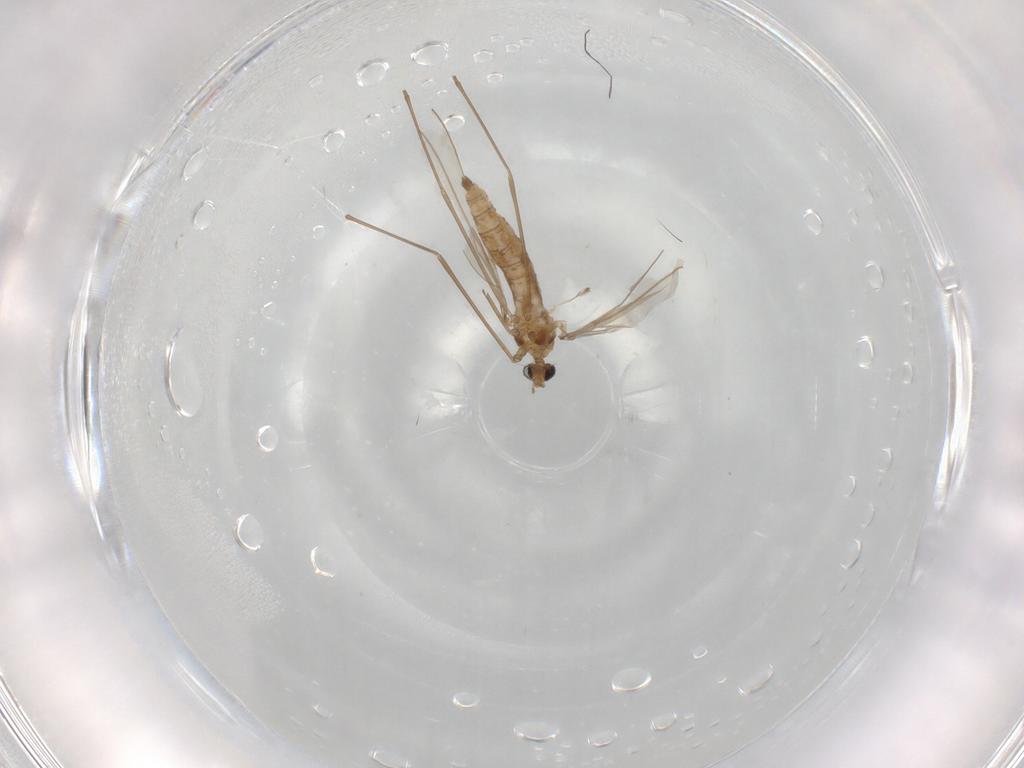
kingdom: Animalia
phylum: Arthropoda
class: Insecta
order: Diptera
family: Cecidomyiidae
